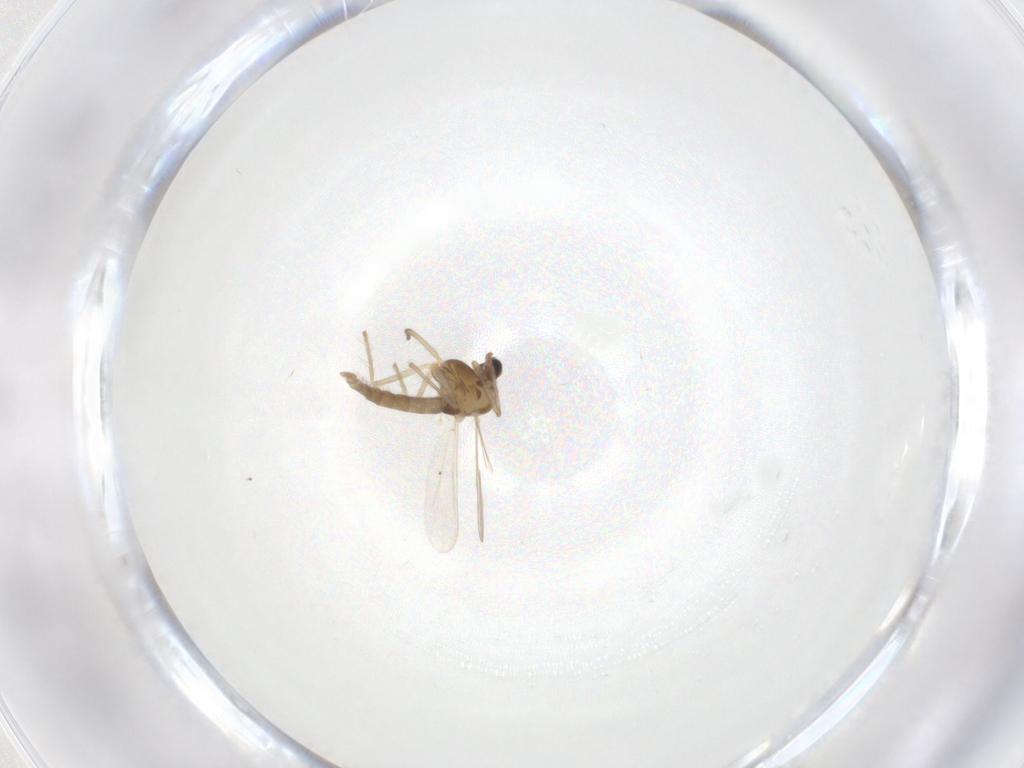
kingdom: Animalia
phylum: Arthropoda
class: Insecta
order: Diptera
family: Chironomidae
